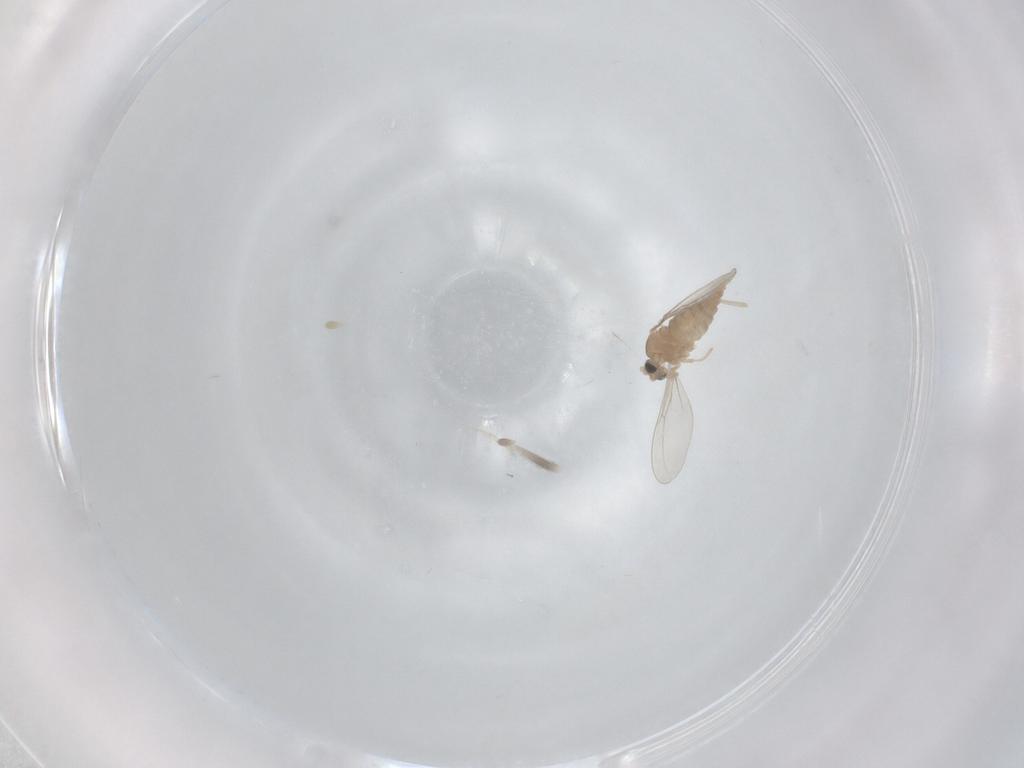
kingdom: Animalia
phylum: Arthropoda
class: Insecta
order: Diptera
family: Cecidomyiidae
